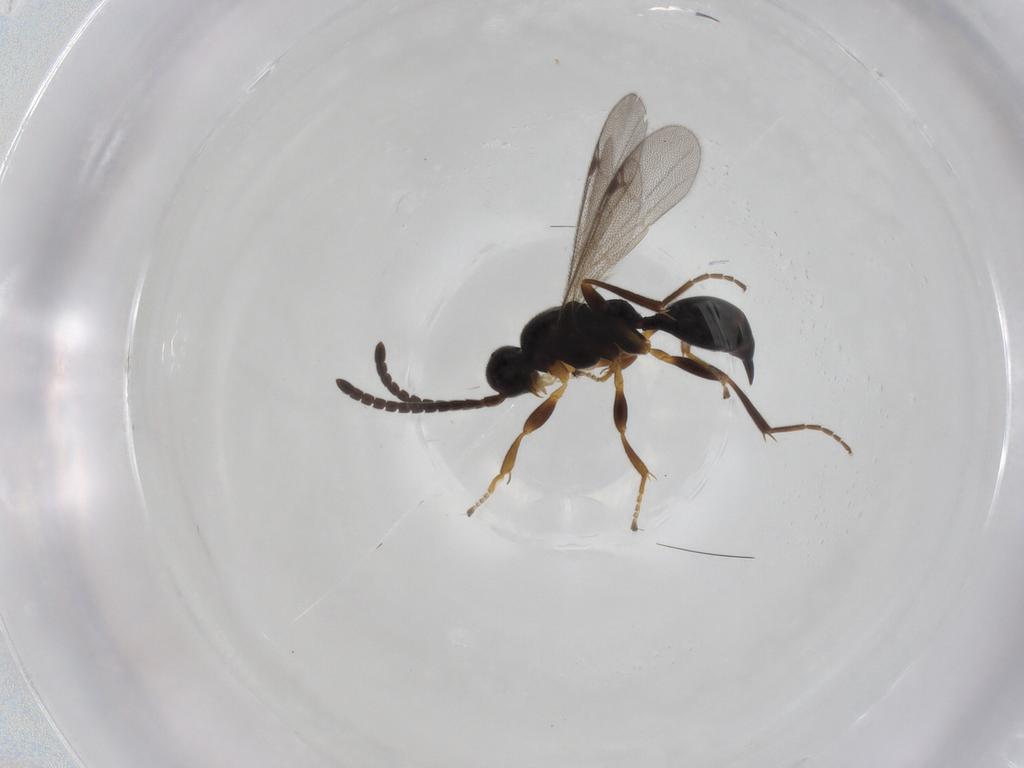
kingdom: Animalia
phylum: Arthropoda
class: Insecta
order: Hymenoptera
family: Proctotrupidae
